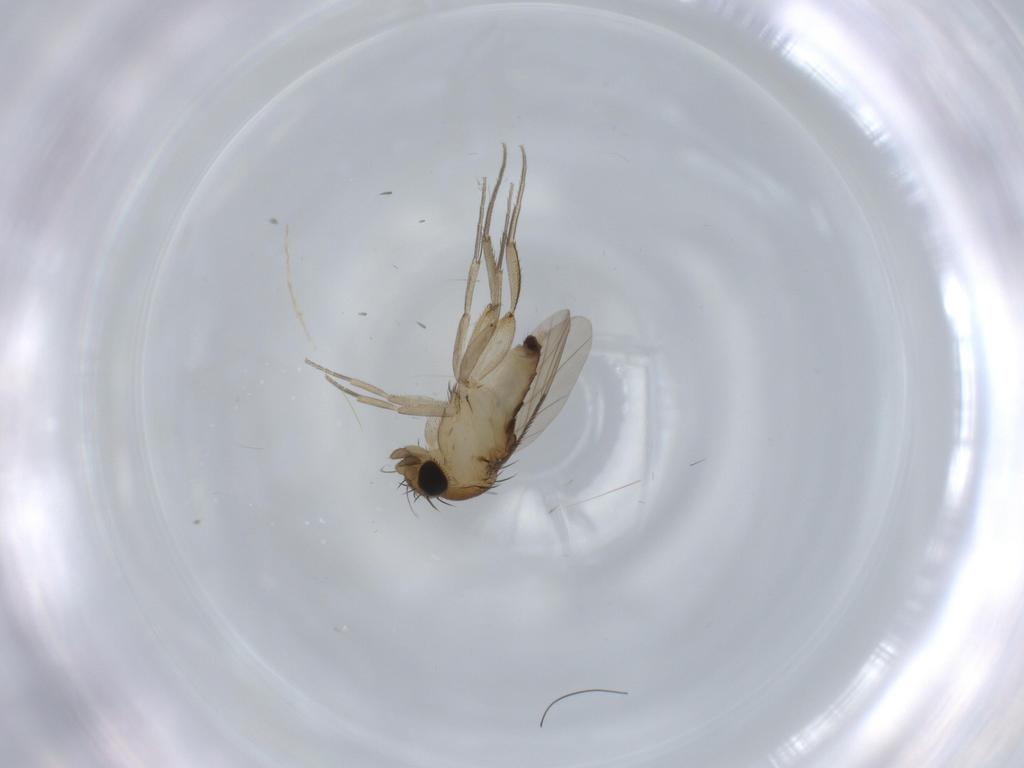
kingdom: Animalia
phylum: Arthropoda
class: Insecta
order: Diptera
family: Phoridae
